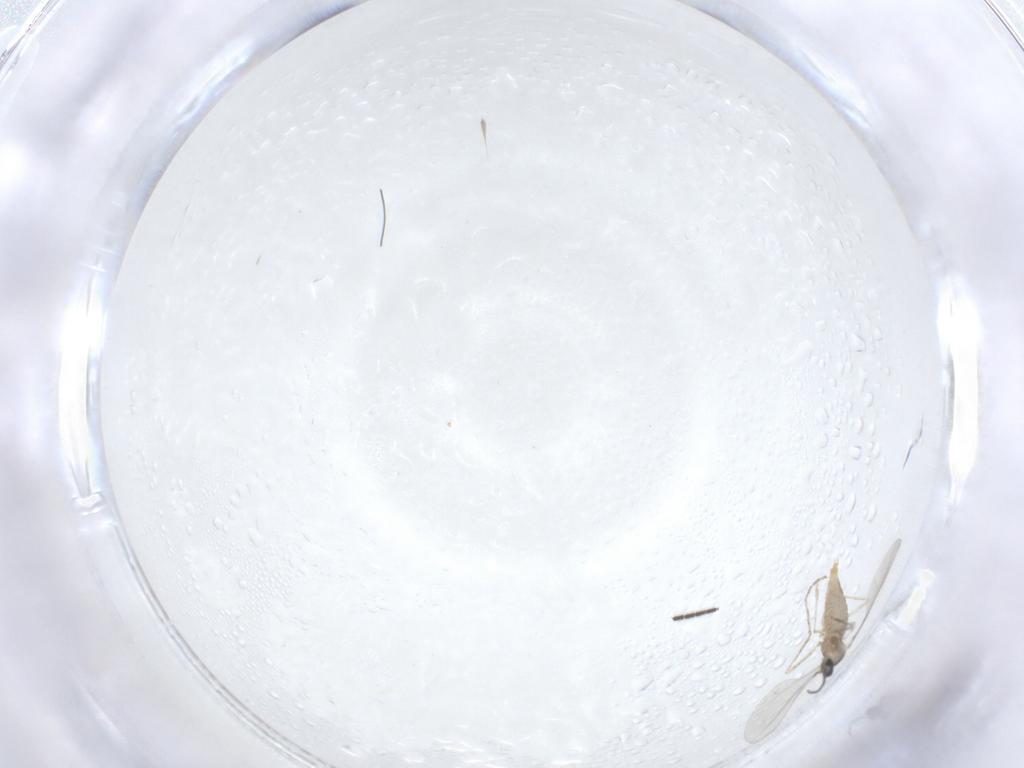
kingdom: Animalia
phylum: Arthropoda
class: Insecta
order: Diptera
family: Sciaridae
